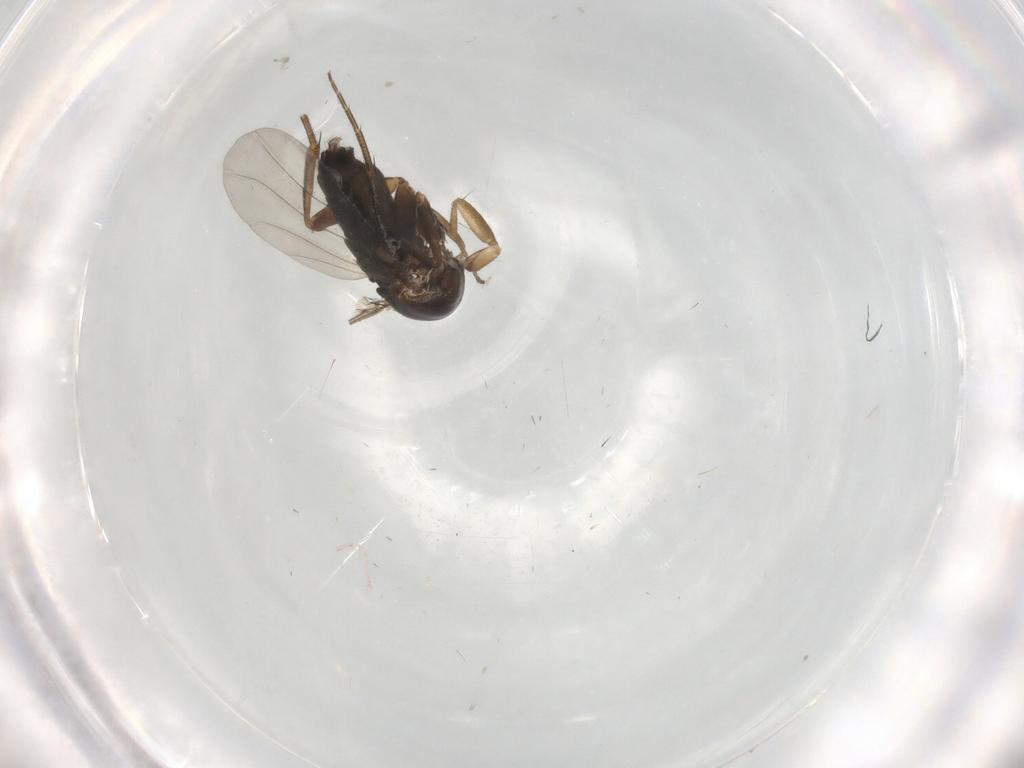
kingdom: Animalia
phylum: Arthropoda
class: Insecta
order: Diptera
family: Phoridae
